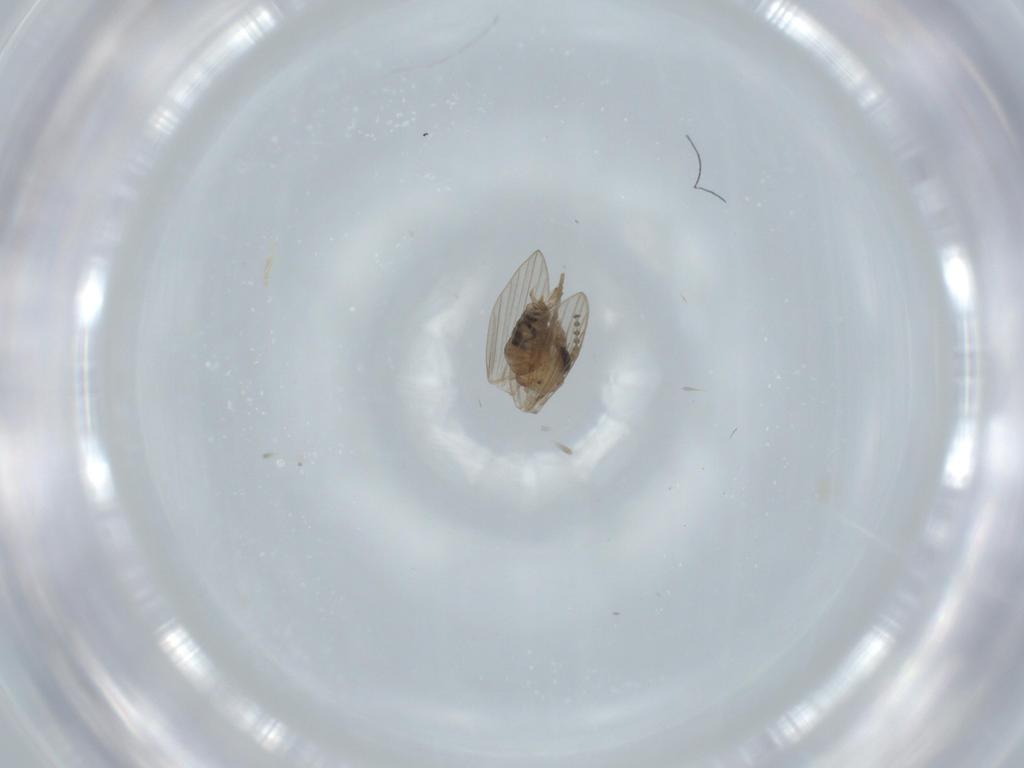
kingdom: Animalia
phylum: Arthropoda
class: Insecta
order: Diptera
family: Psychodidae
